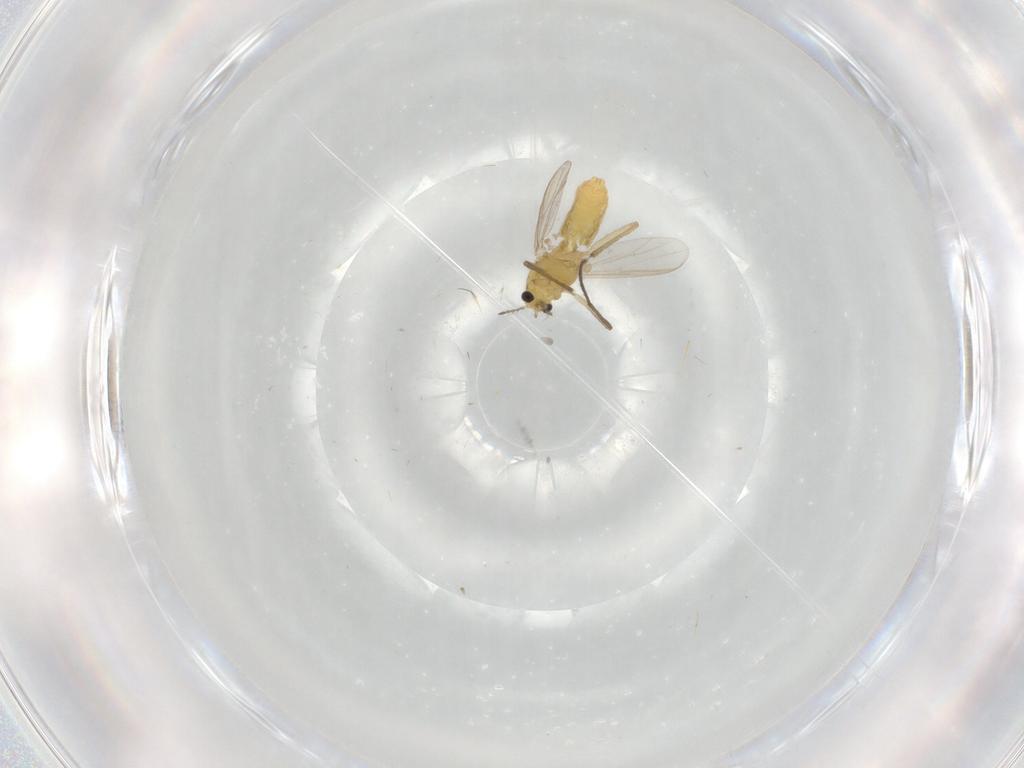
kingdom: Animalia
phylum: Arthropoda
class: Insecta
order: Diptera
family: Chironomidae
